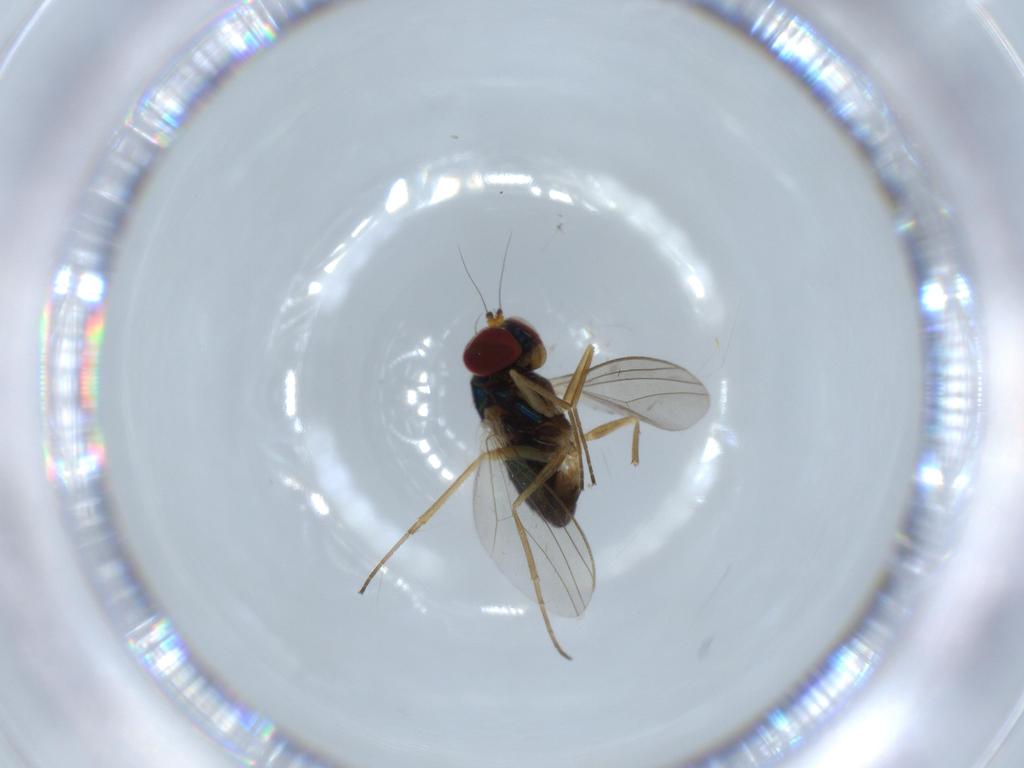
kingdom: Animalia
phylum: Arthropoda
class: Insecta
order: Diptera
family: Dolichopodidae
